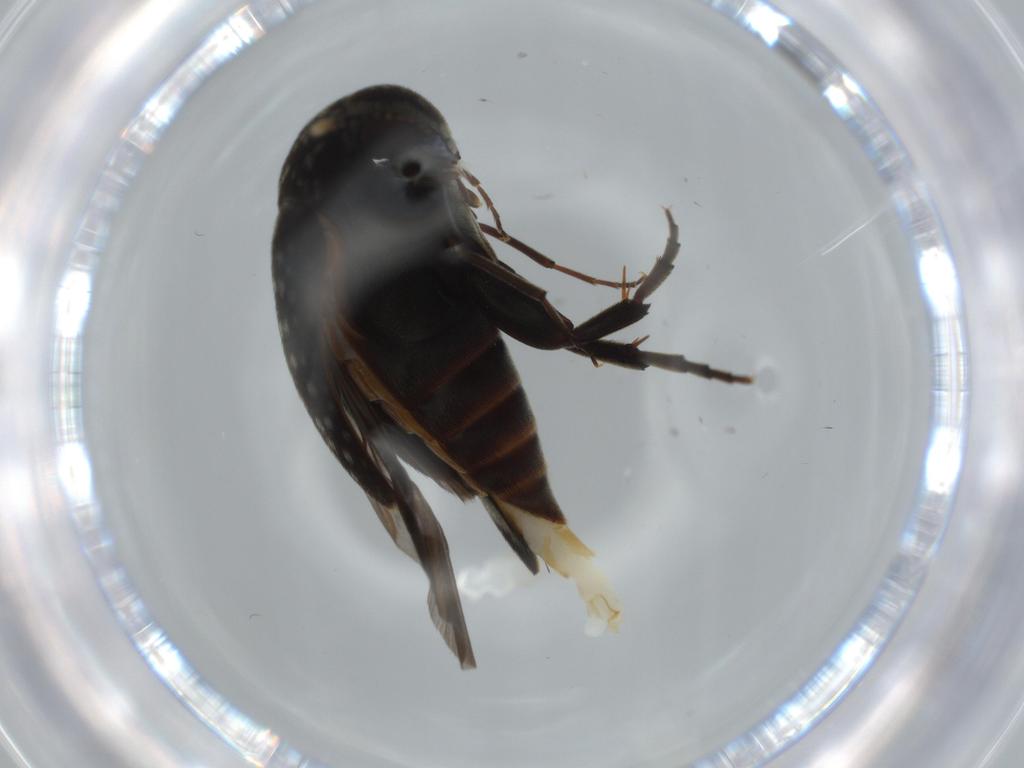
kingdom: Animalia
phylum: Arthropoda
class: Insecta
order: Coleoptera
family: Mordellidae
